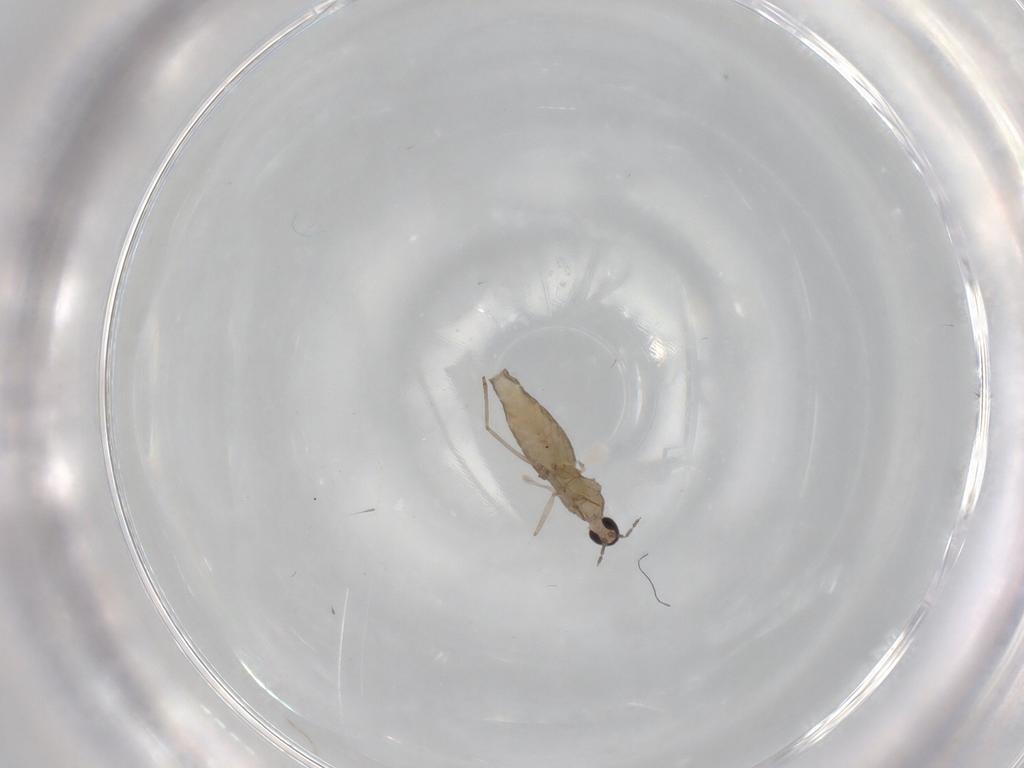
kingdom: Animalia
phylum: Arthropoda
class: Insecta
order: Diptera
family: Cecidomyiidae
